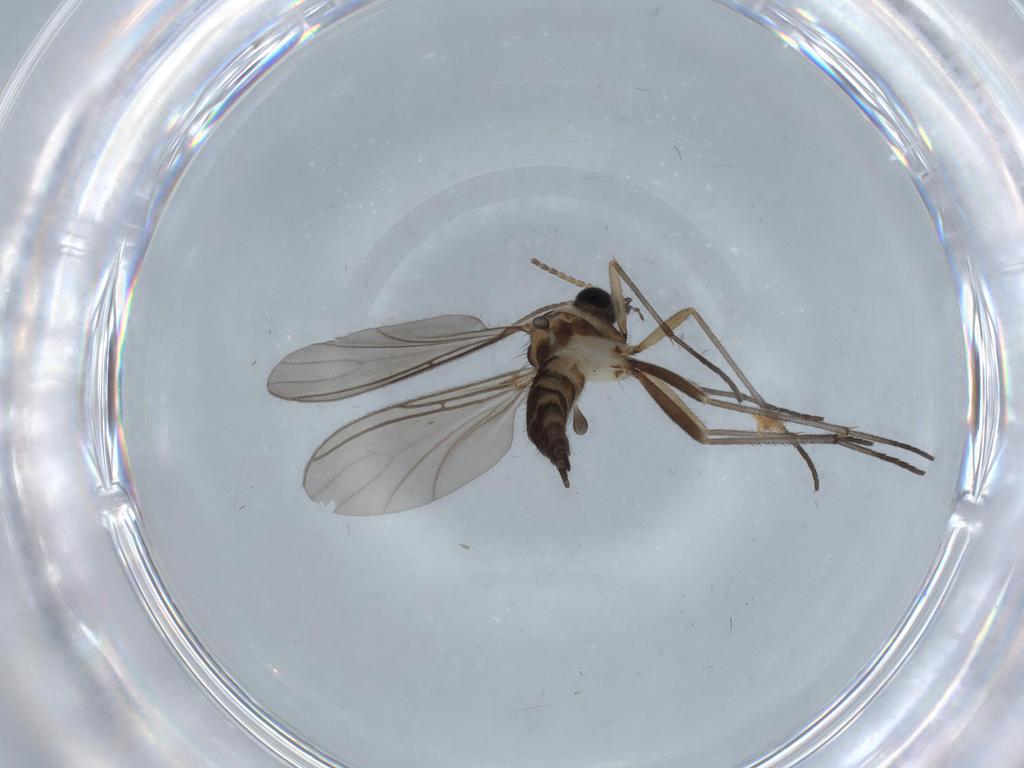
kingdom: Animalia
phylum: Arthropoda
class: Insecta
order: Diptera
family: Sciaridae
